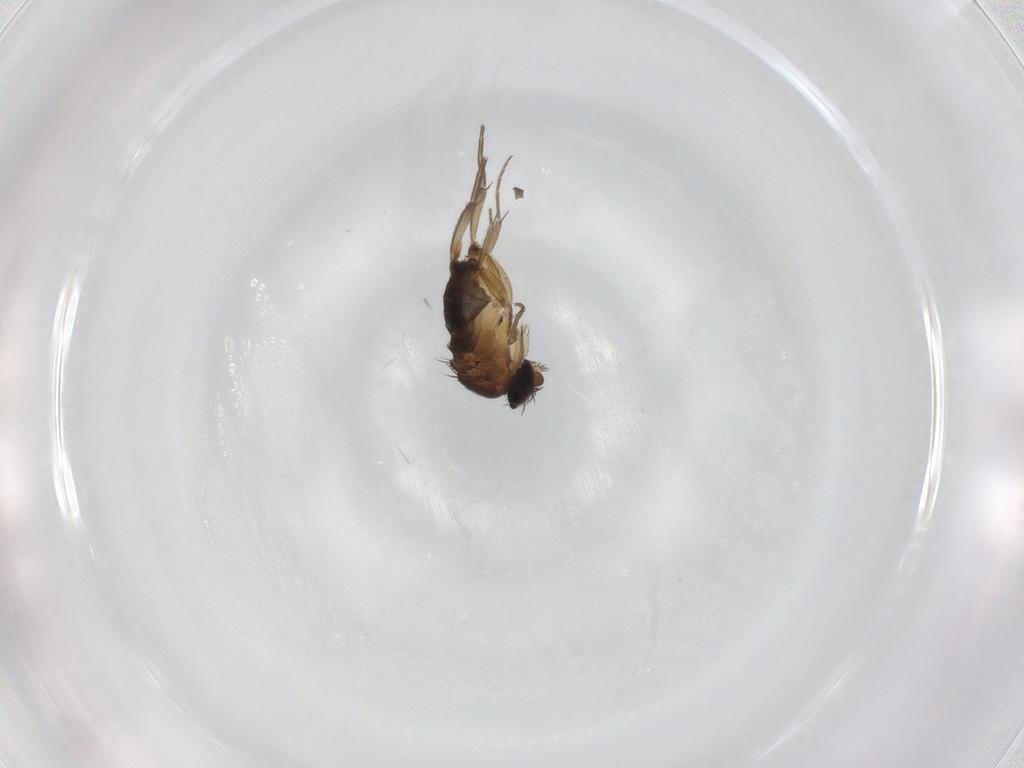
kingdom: Animalia
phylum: Arthropoda
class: Insecta
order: Diptera
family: Phoridae
